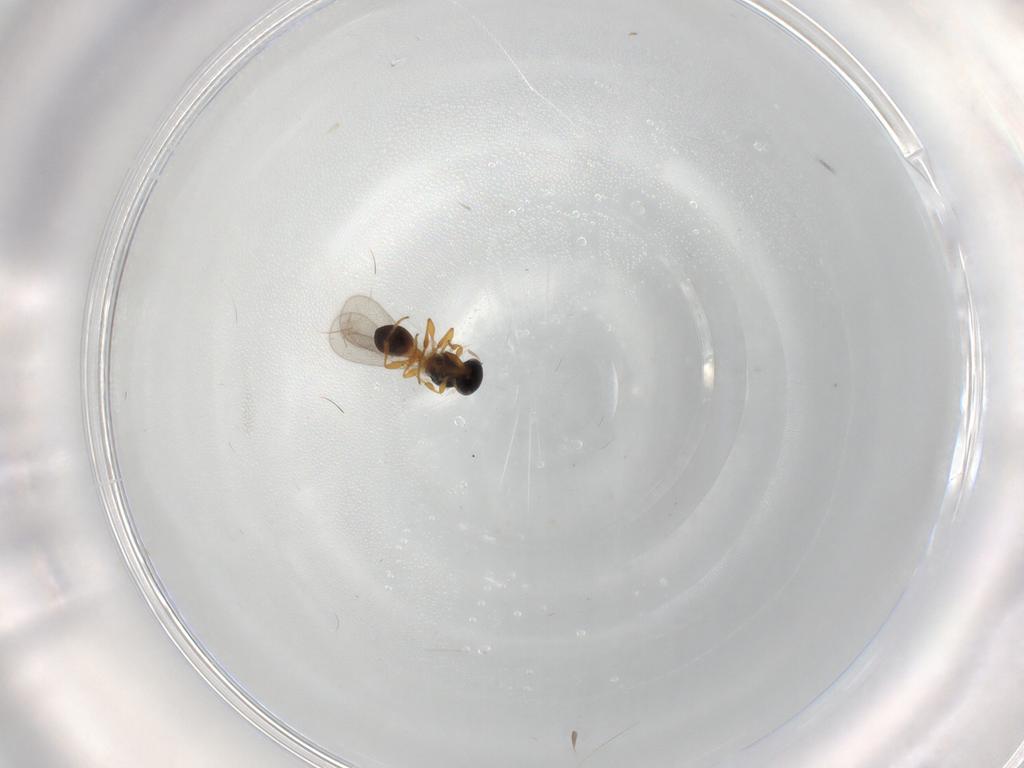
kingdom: Animalia
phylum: Arthropoda
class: Insecta
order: Hymenoptera
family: Platygastridae
